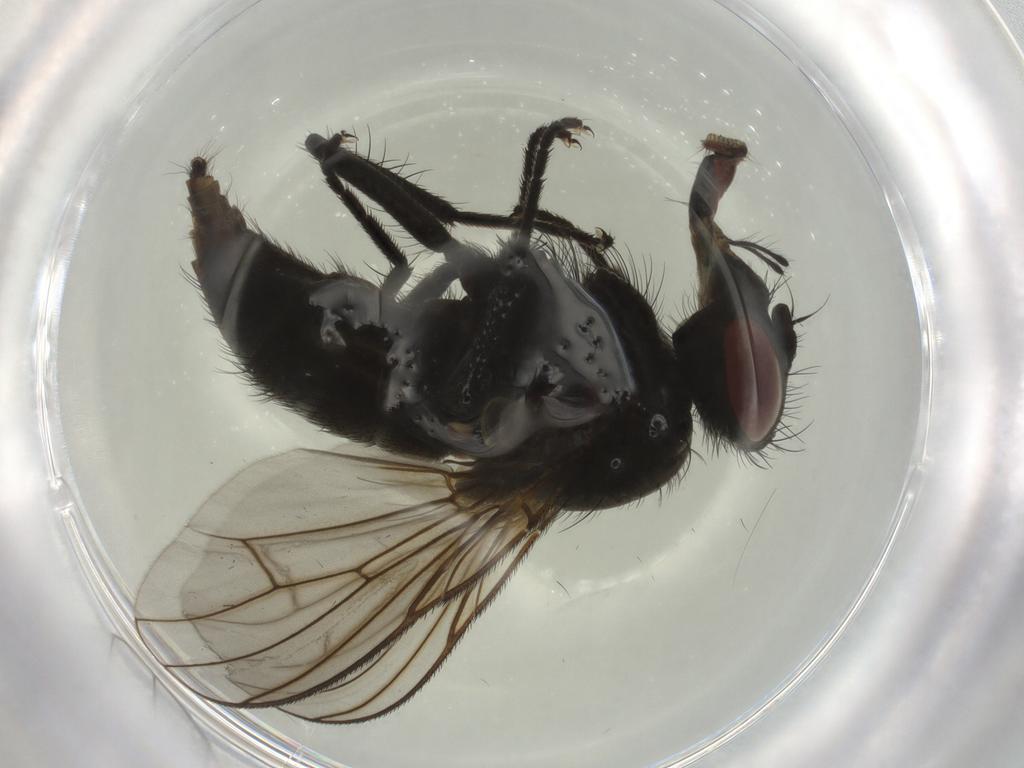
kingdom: Animalia
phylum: Arthropoda
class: Insecta
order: Diptera
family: Muscidae
